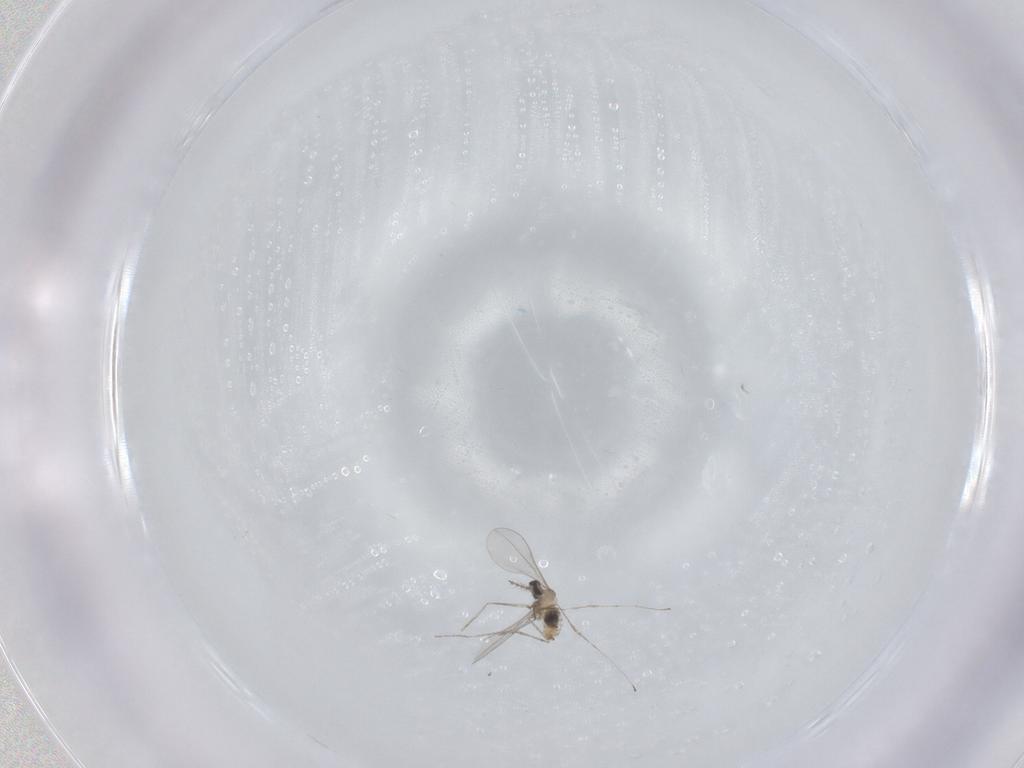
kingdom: Animalia
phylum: Arthropoda
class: Insecta
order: Diptera
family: Cecidomyiidae
